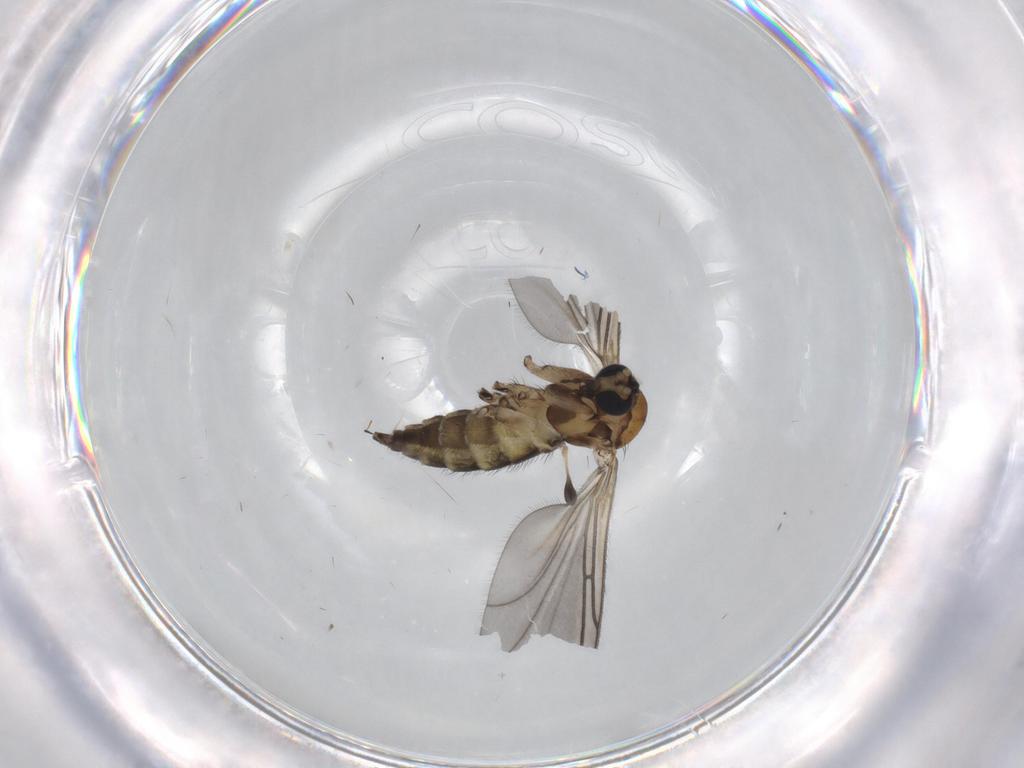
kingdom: Animalia
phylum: Arthropoda
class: Insecta
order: Diptera
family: Sciaridae
